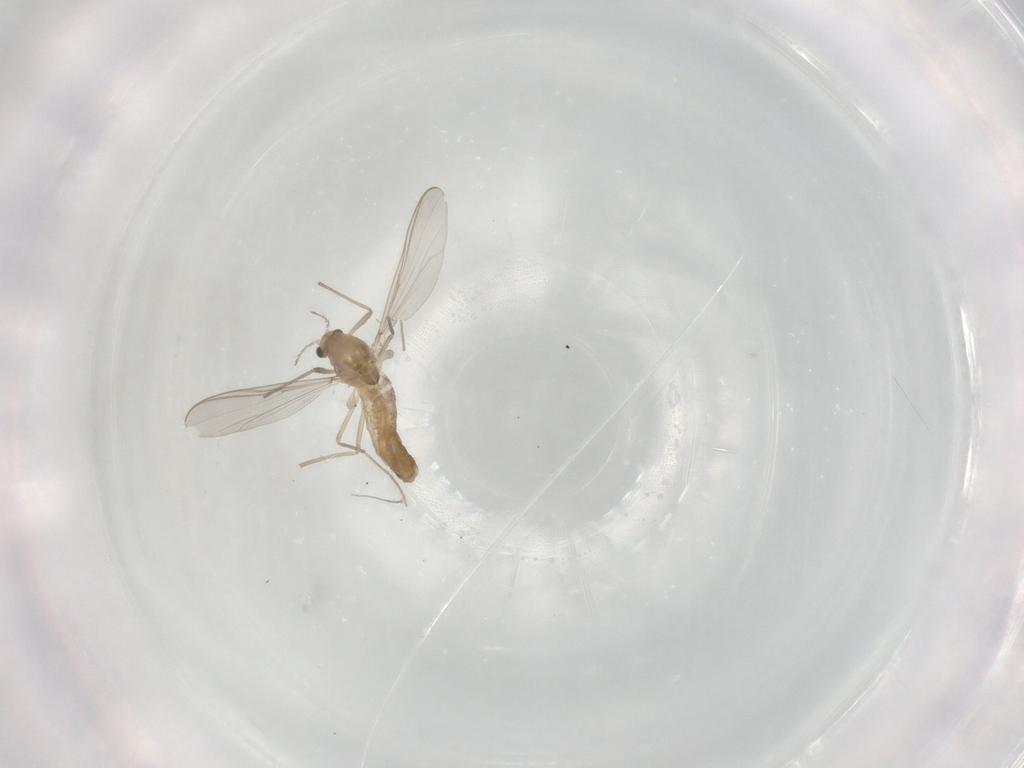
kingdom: Animalia
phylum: Arthropoda
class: Insecta
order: Diptera
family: Chironomidae
